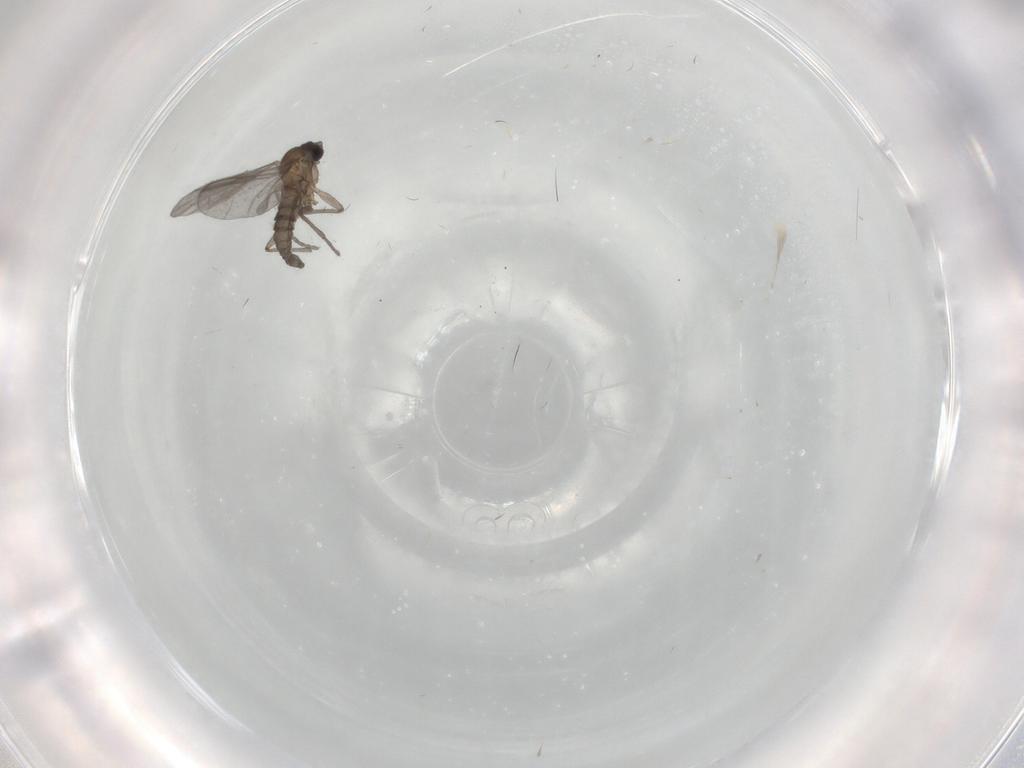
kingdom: Animalia
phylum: Arthropoda
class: Insecta
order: Diptera
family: Sciaridae
